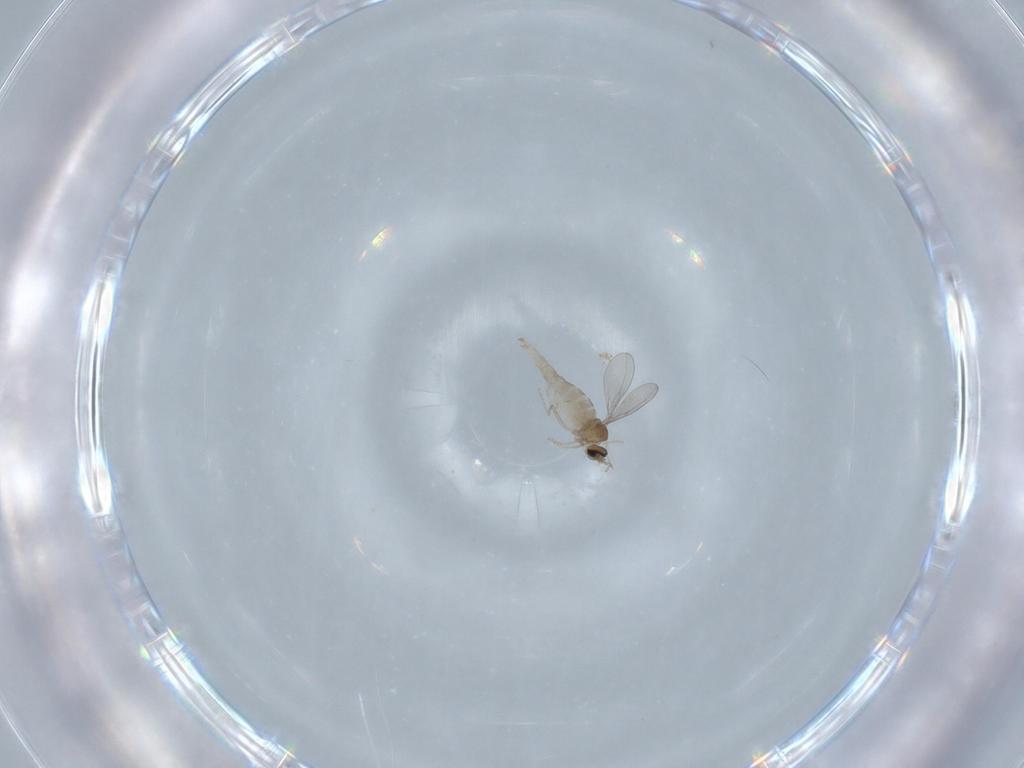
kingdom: Animalia
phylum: Arthropoda
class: Insecta
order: Diptera
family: Cecidomyiidae
